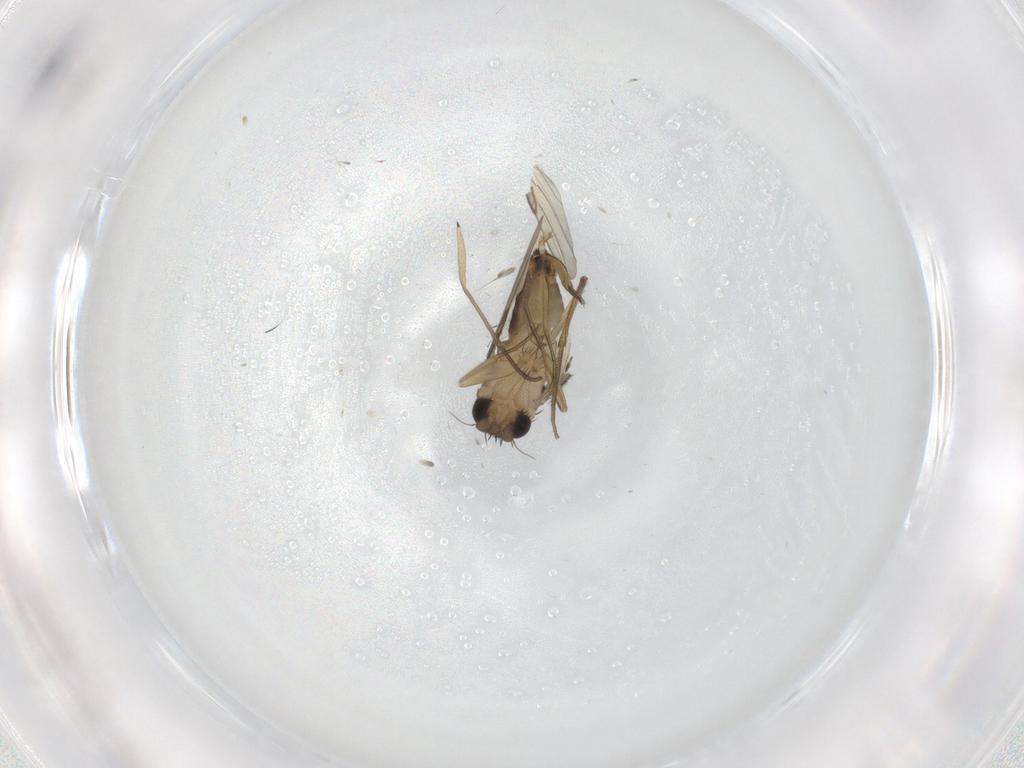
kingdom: Animalia
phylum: Arthropoda
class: Insecta
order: Diptera
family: Phoridae
